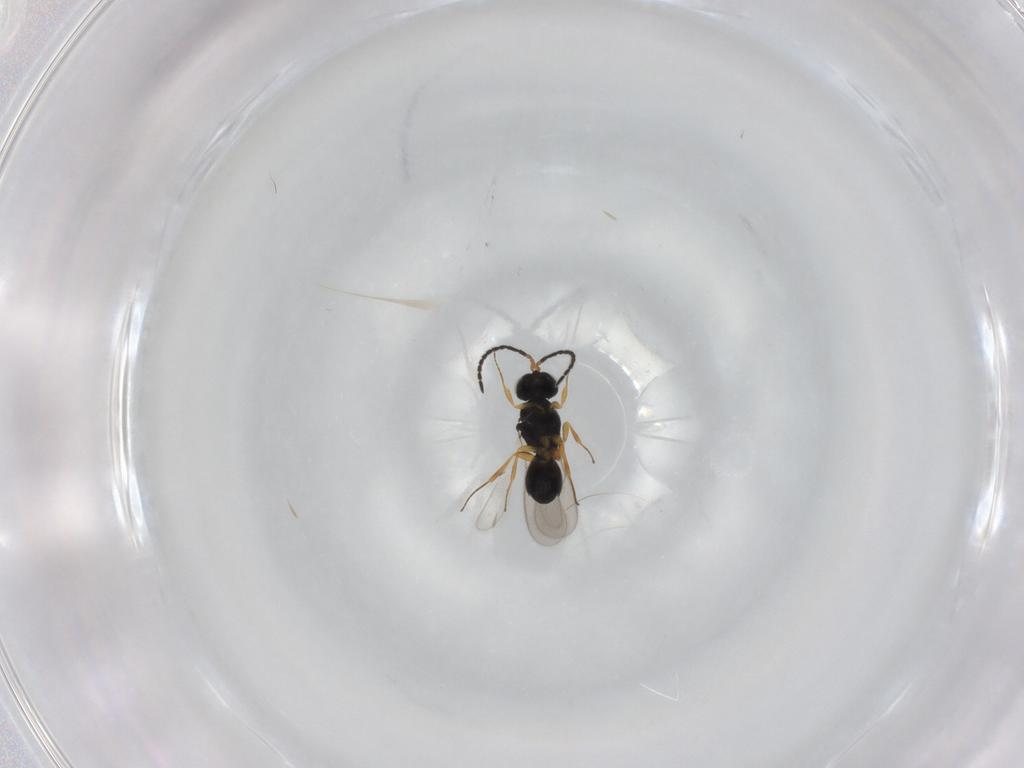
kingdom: Animalia
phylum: Arthropoda
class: Insecta
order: Hymenoptera
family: Scelionidae
